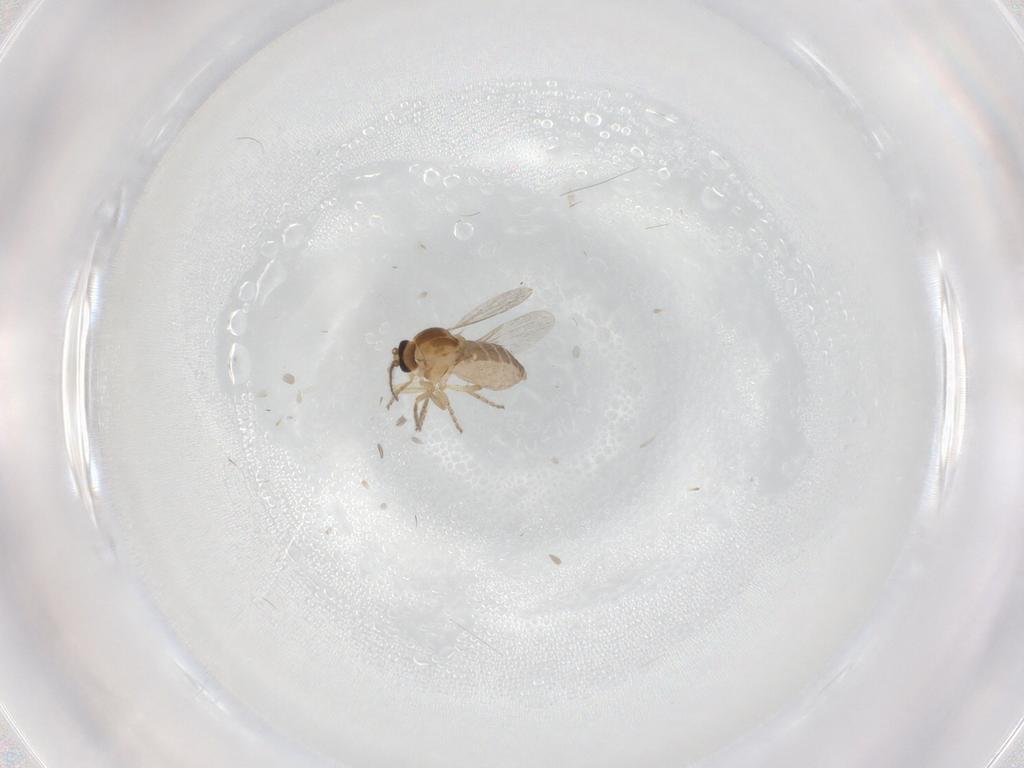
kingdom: Animalia
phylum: Arthropoda
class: Insecta
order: Diptera
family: Ceratopogonidae
